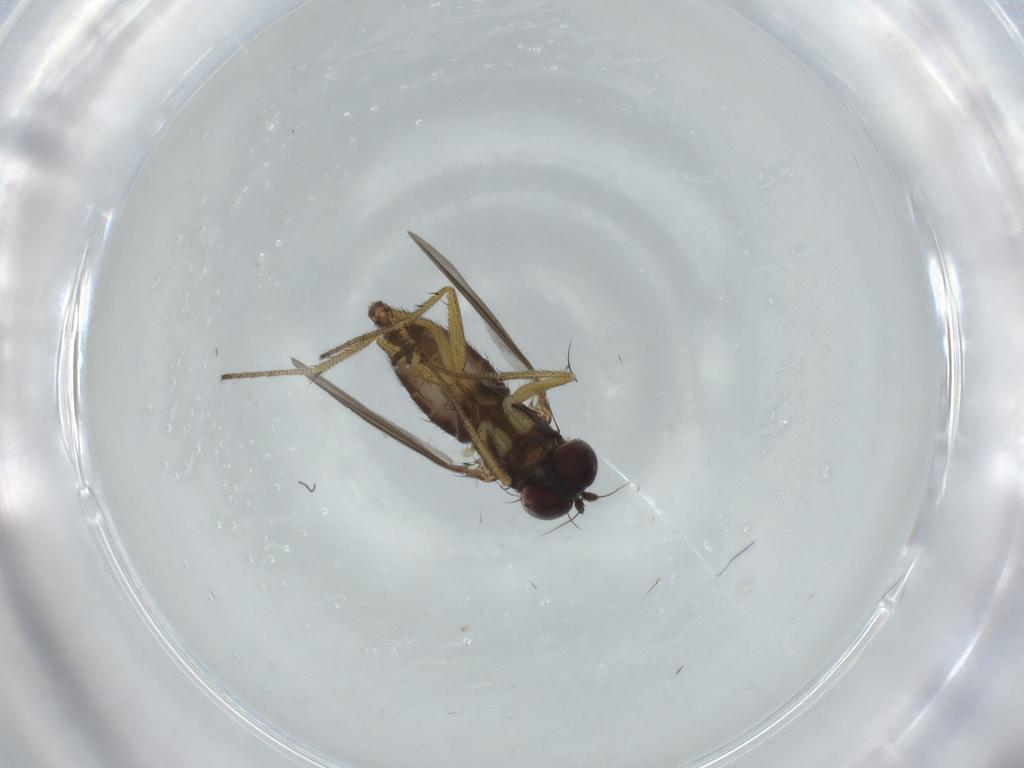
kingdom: Animalia
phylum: Arthropoda
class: Insecta
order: Diptera
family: Dolichopodidae
